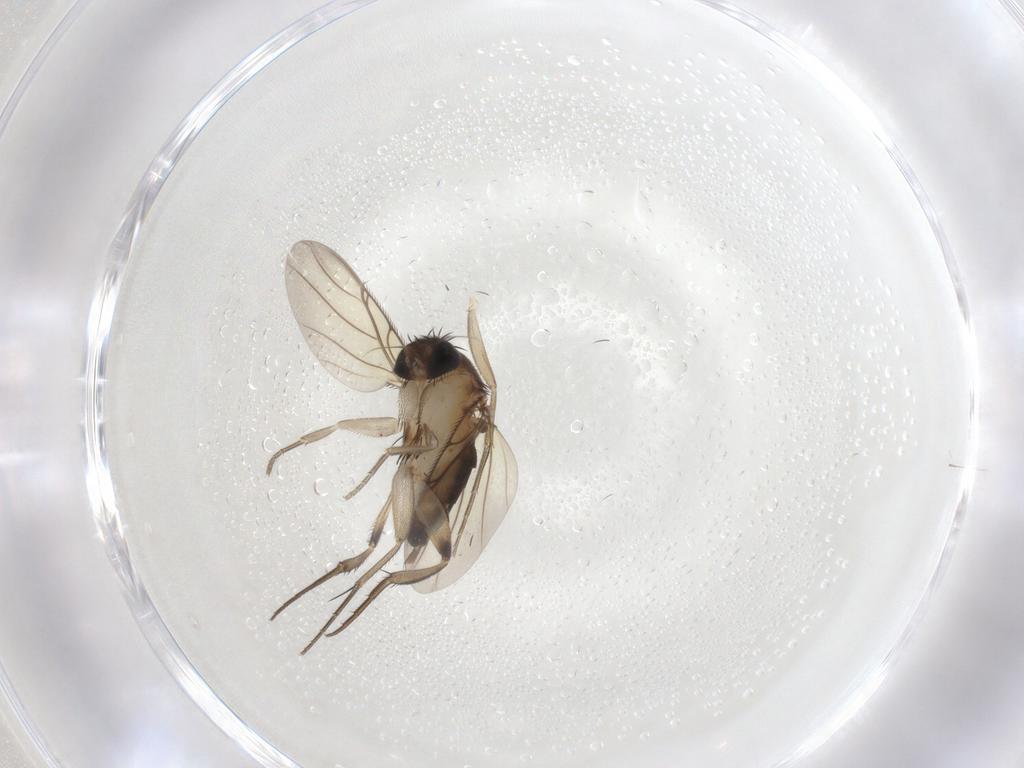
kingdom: Animalia
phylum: Arthropoda
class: Insecta
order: Diptera
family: Phoridae
